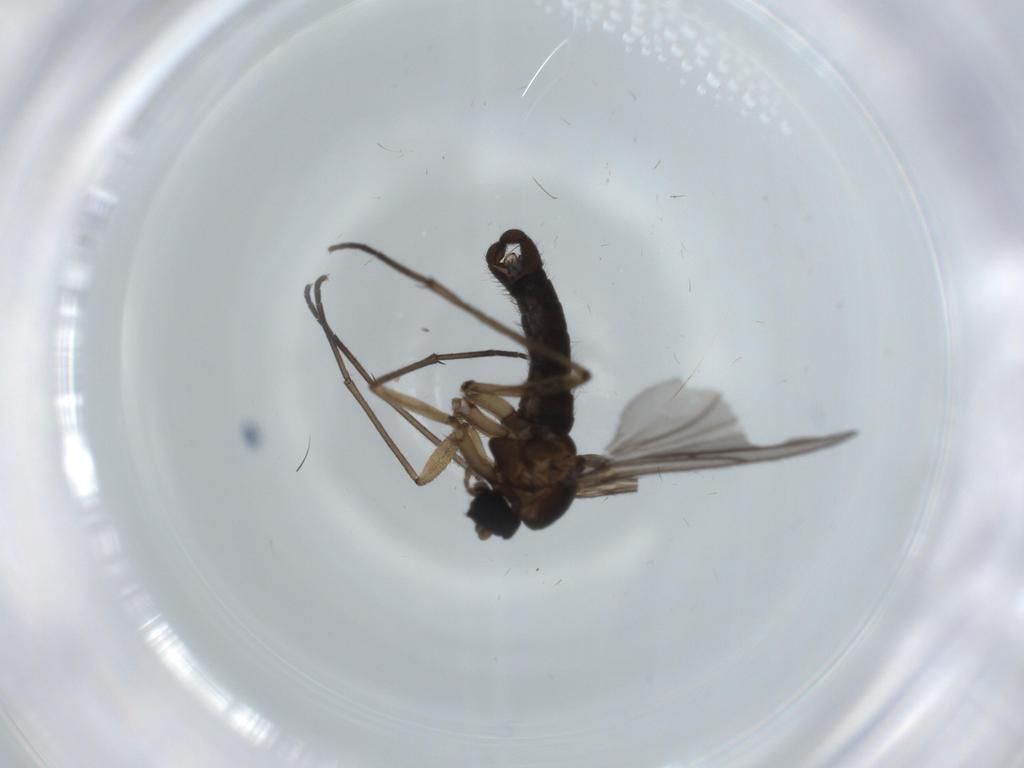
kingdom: Animalia
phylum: Arthropoda
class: Insecta
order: Diptera
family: Sciaridae
